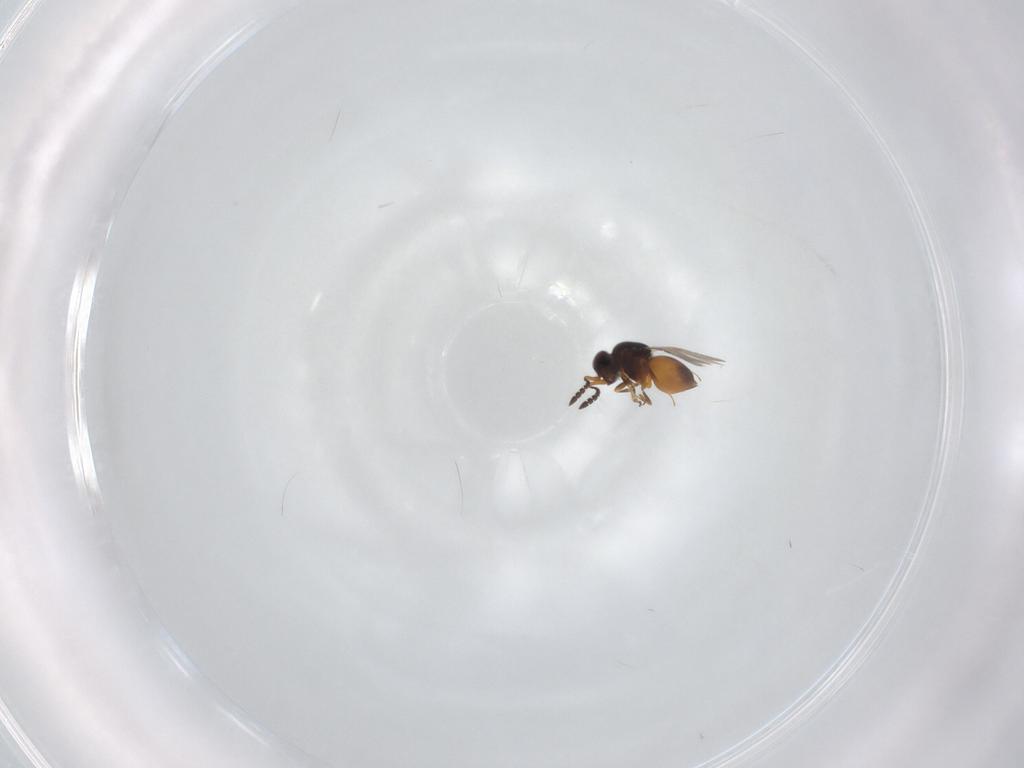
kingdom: Animalia
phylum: Arthropoda
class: Insecta
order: Hymenoptera
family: Ceraphronidae
